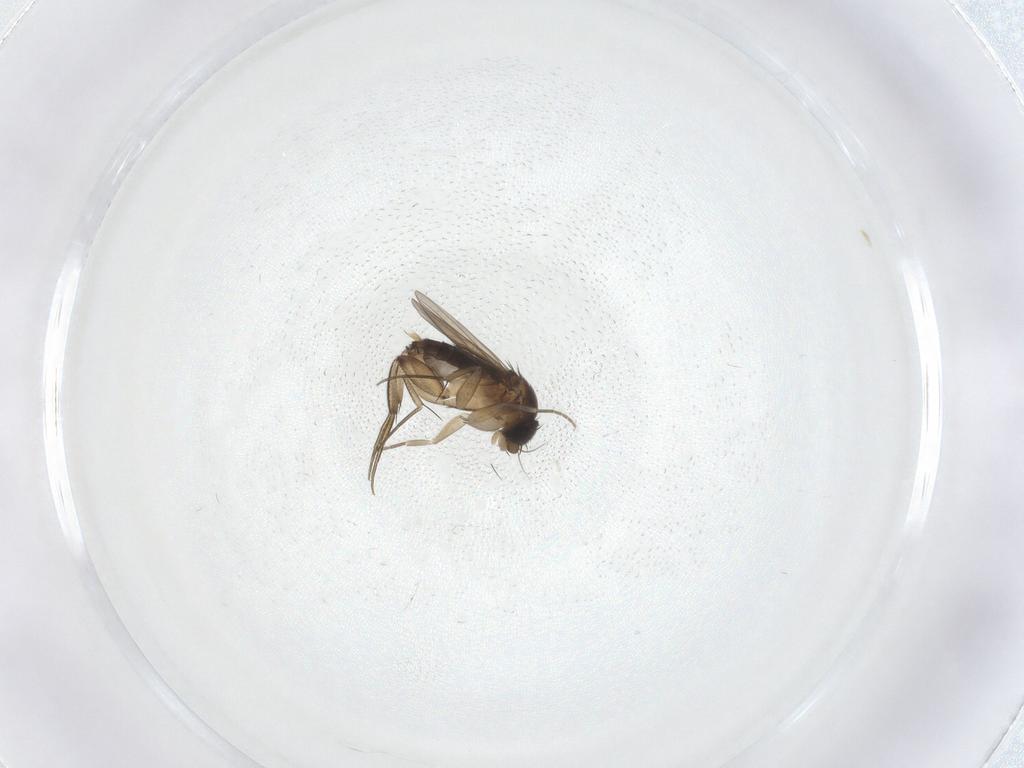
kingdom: Animalia
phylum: Arthropoda
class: Insecta
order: Diptera
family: Phoridae
